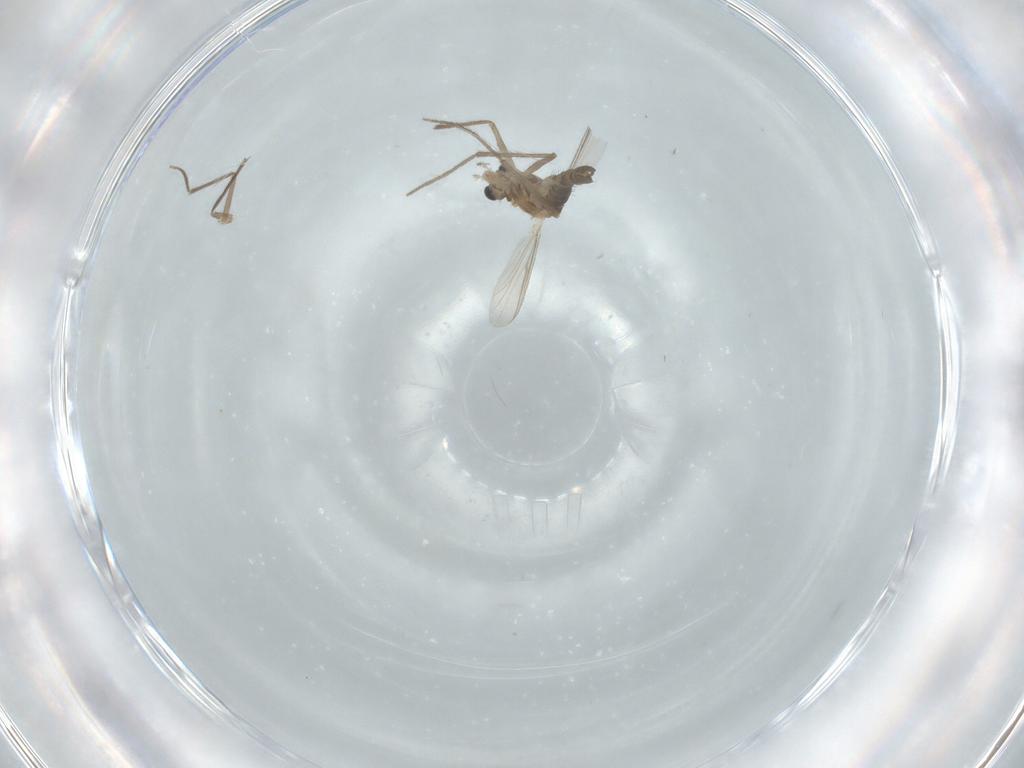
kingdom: Animalia
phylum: Arthropoda
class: Insecta
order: Diptera
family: Chironomidae
